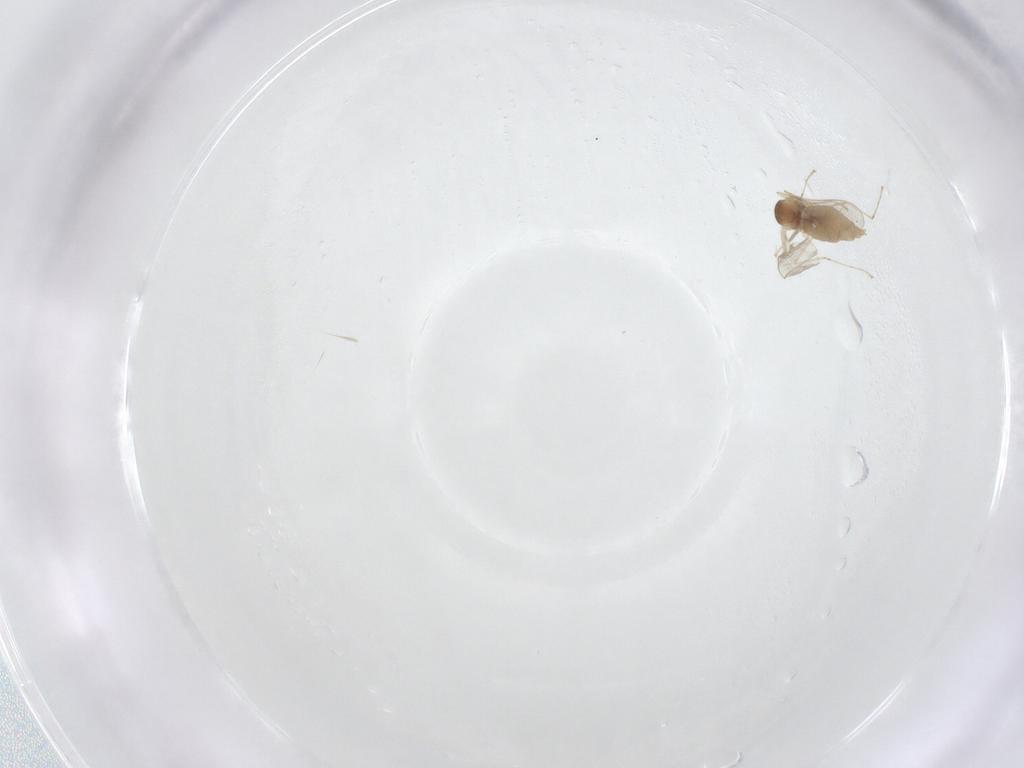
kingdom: Animalia
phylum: Arthropoda
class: Insecta
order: Diptera
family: Cecidomyiidae
